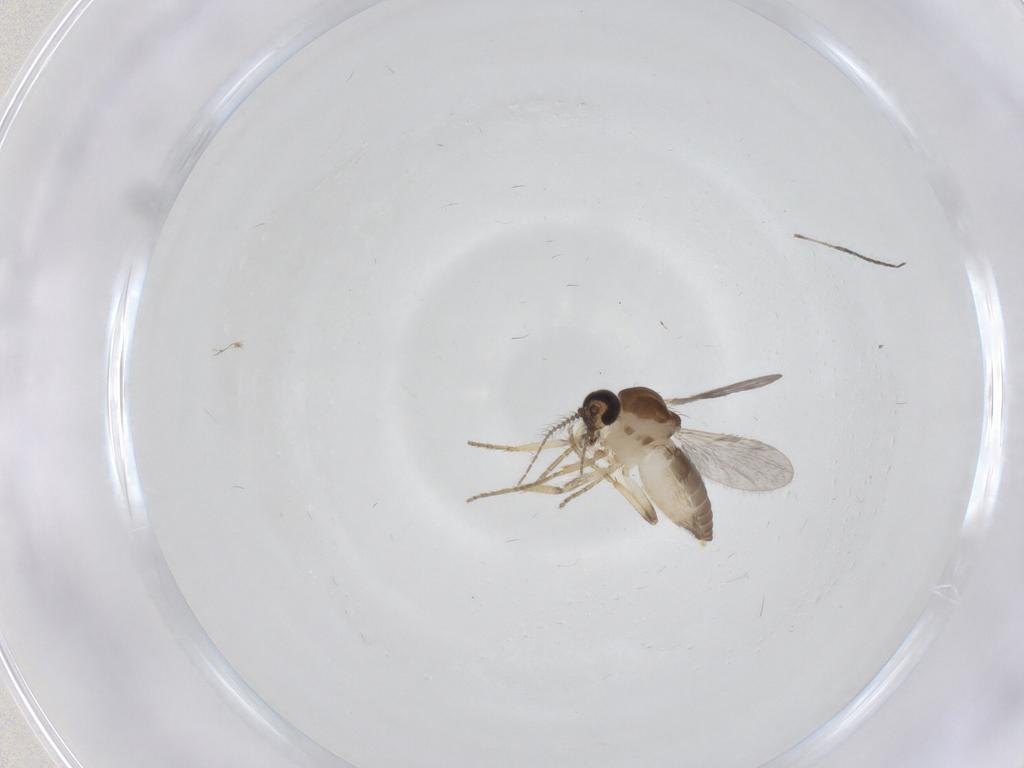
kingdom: Animalia
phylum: Arthropoda
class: Insecta
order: Diptera
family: Ceratopogonidae
